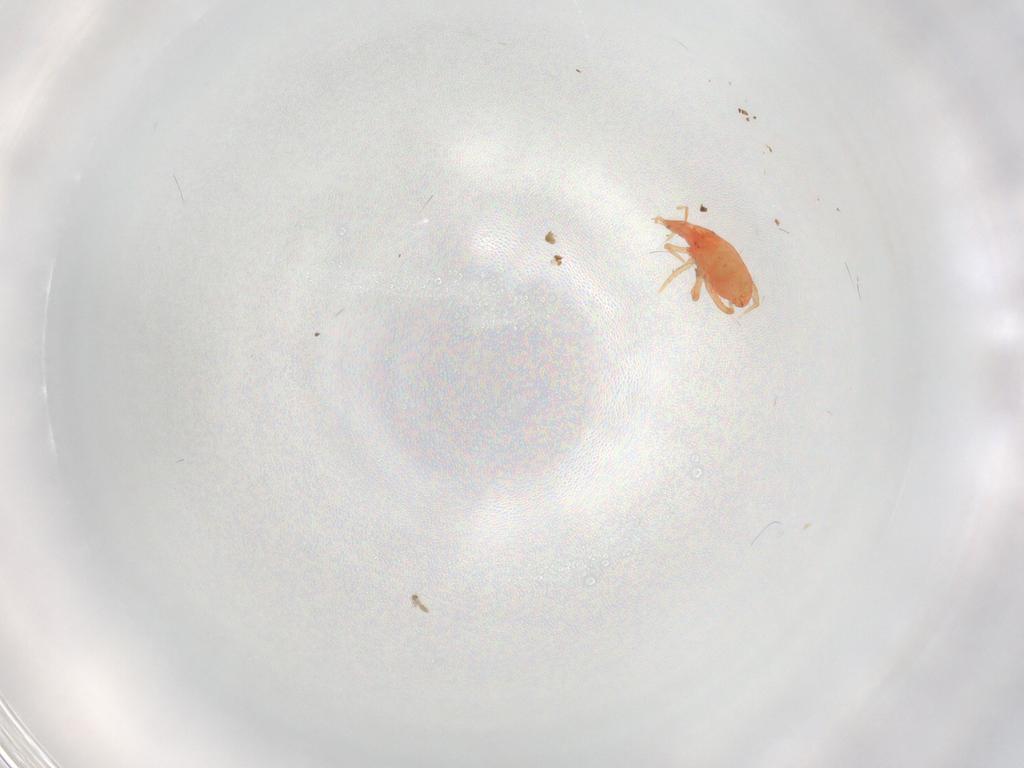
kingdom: Animalia
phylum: Arthropoda
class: Arachnida
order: Trombidiformes
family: Bdellidae
